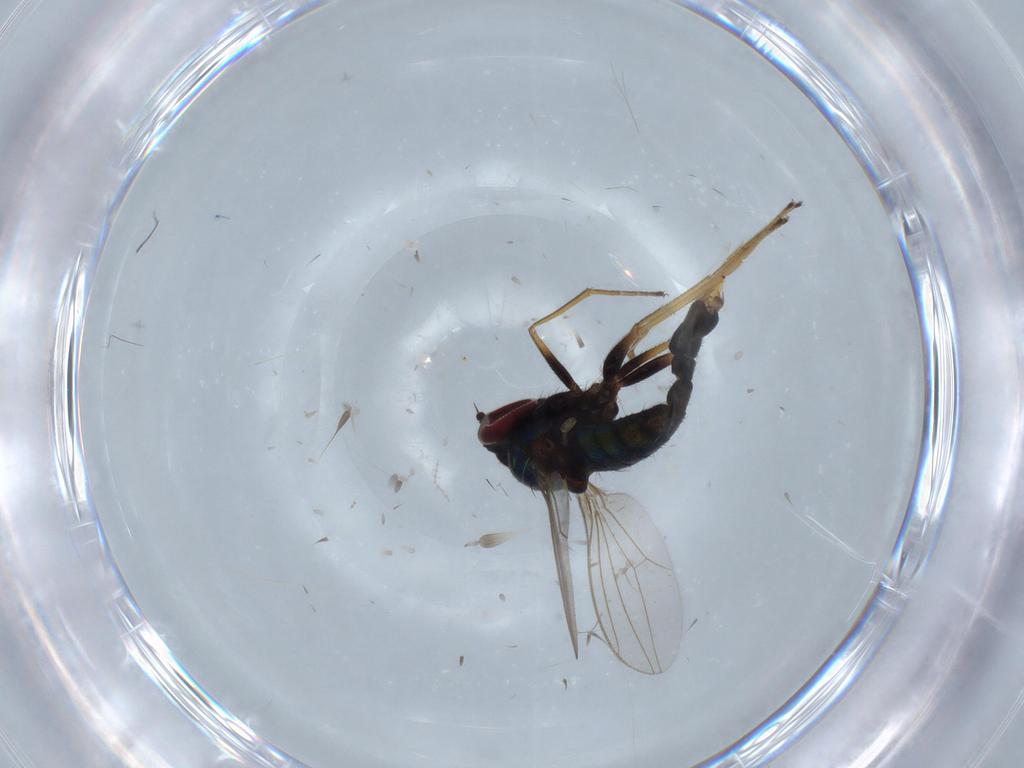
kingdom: Animalia
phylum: Arthropoda
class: Insecta
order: Diptera
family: Dolichopodidae
